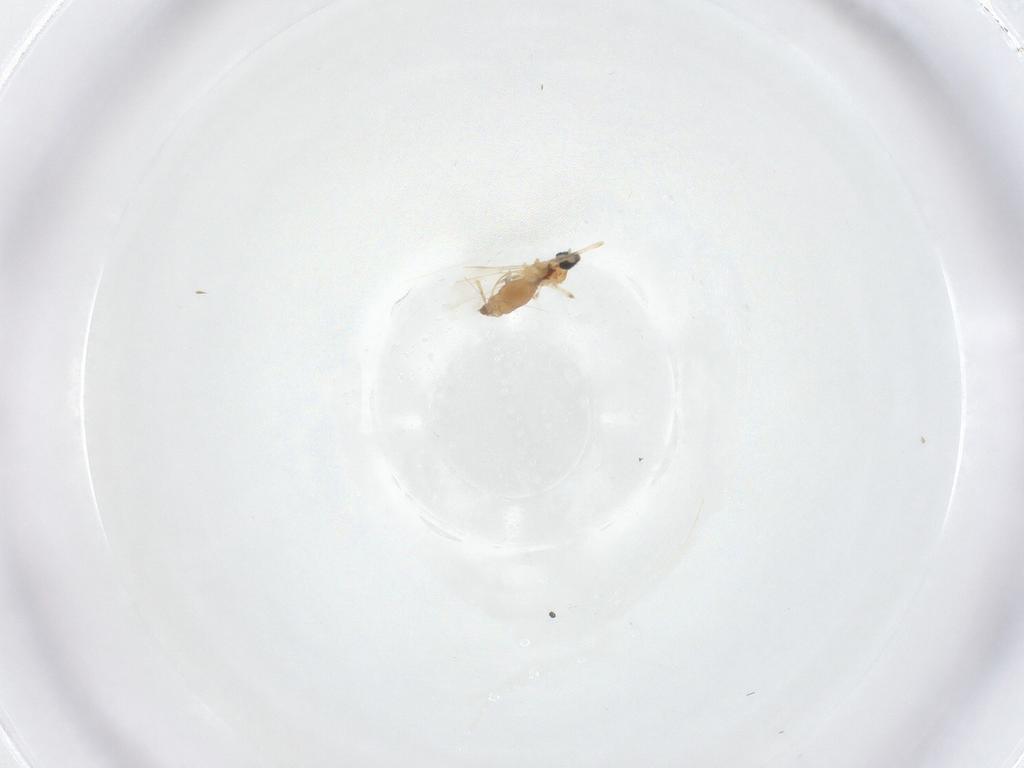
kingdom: Animalia
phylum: Arthropoda
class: Insecta
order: Diptera
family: Cecidomyiidae
